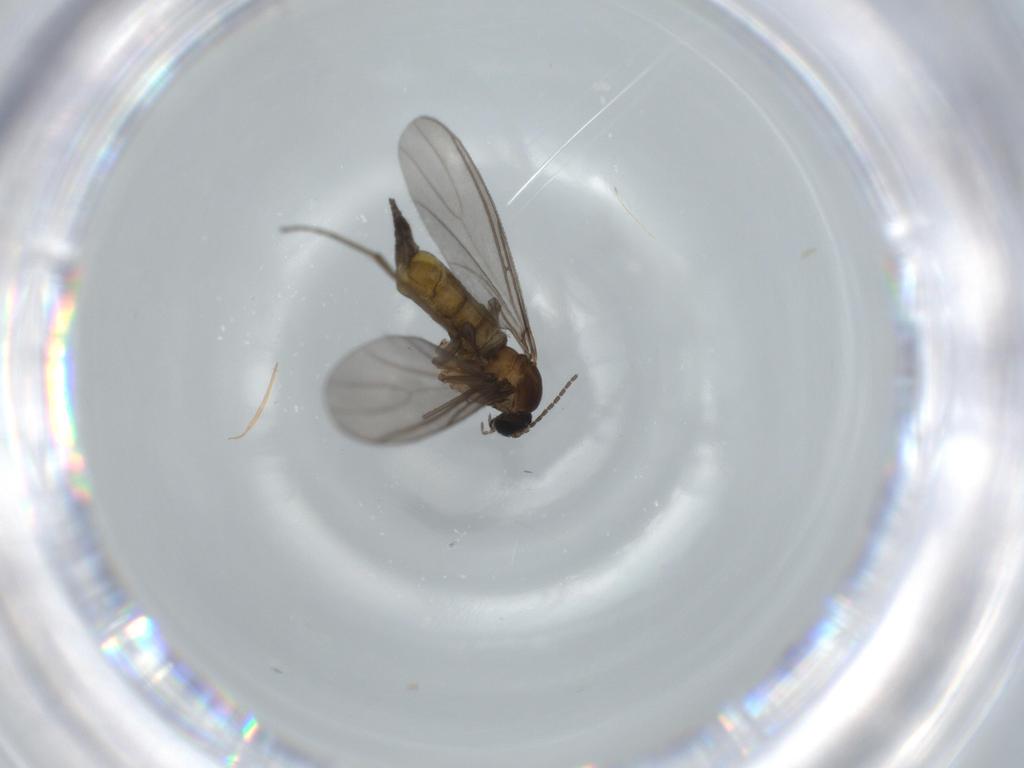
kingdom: Animalia
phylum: Arthropoda
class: Insecta
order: Diptera
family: Sciaridae
